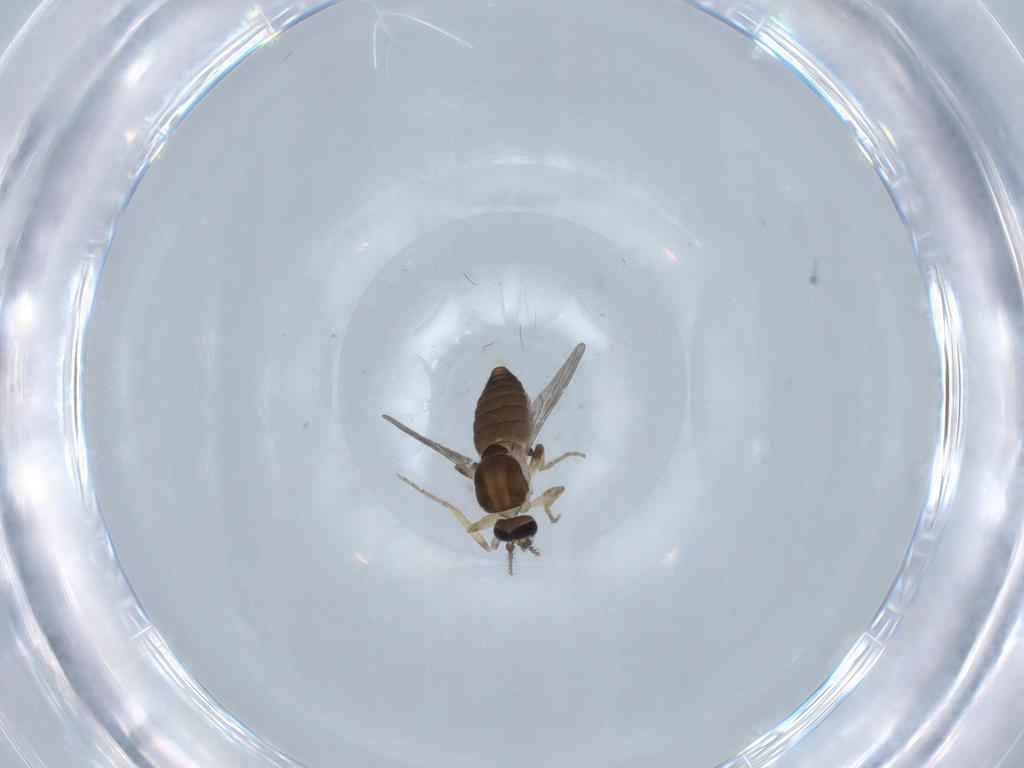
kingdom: Animalia
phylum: Arthropoda
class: Insecta
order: Diptera
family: Ceratopogonidae
